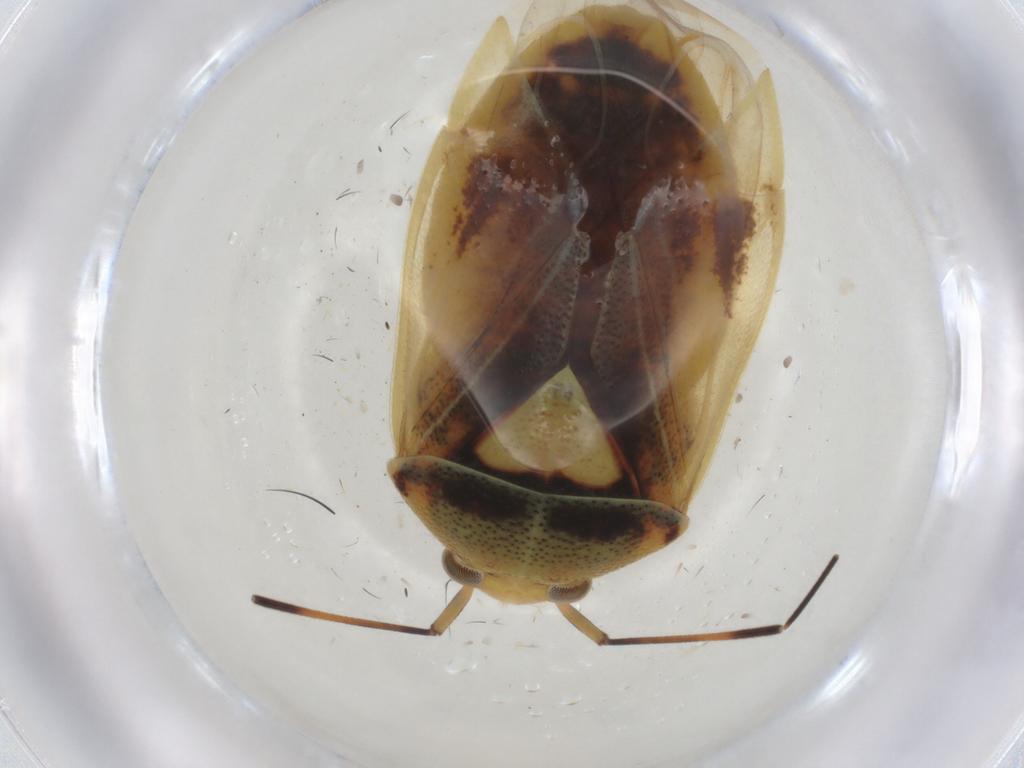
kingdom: Animalia
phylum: Arthropoda
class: Insecta
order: Hemiptera
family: Miridae
